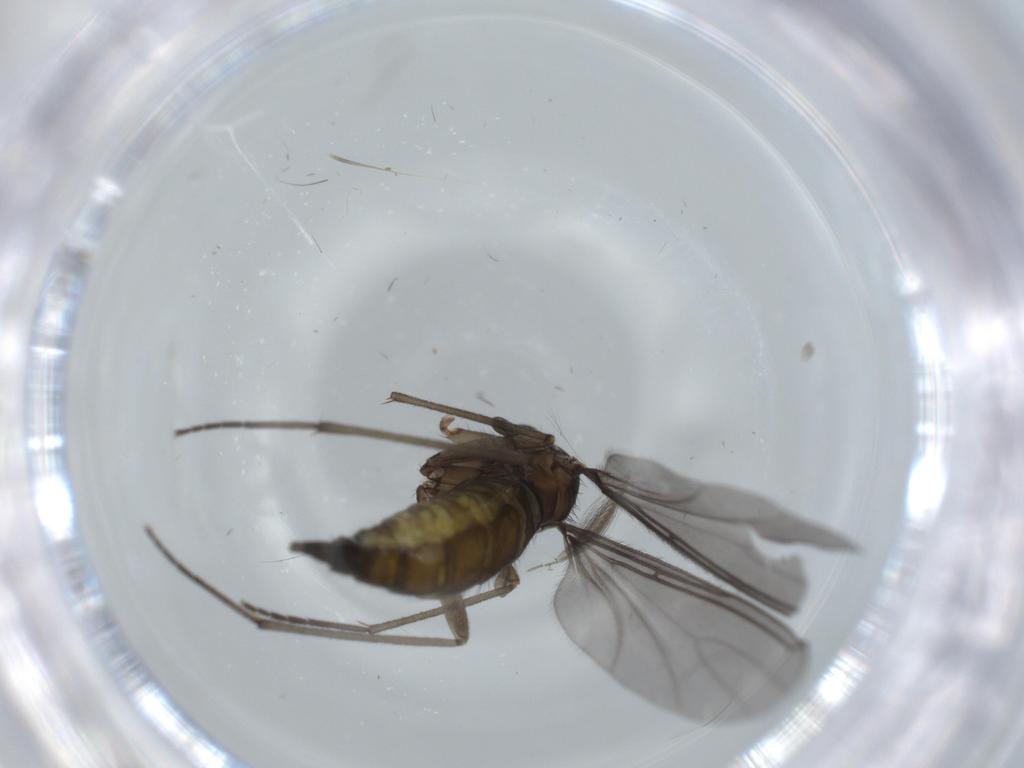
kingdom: Animalia
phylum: Arthropoda
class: Insecta
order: Diptera
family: Sciaridae
